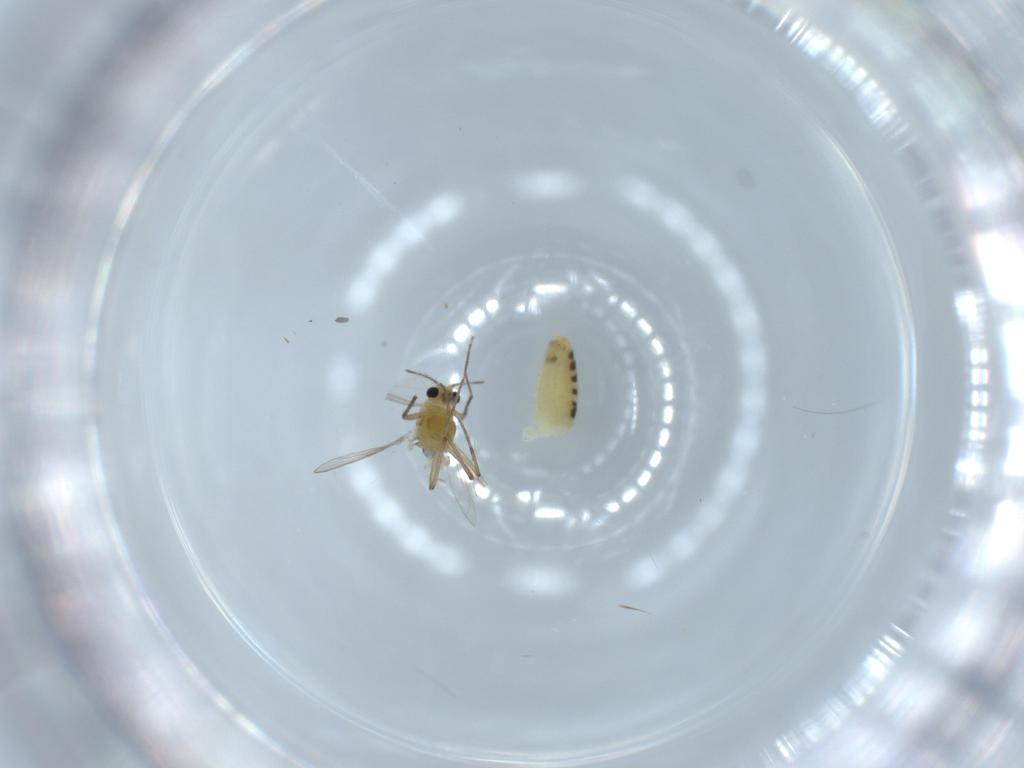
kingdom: Animalia
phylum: Arthropoda
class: Insecta
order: Diptera
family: Chironomidae
